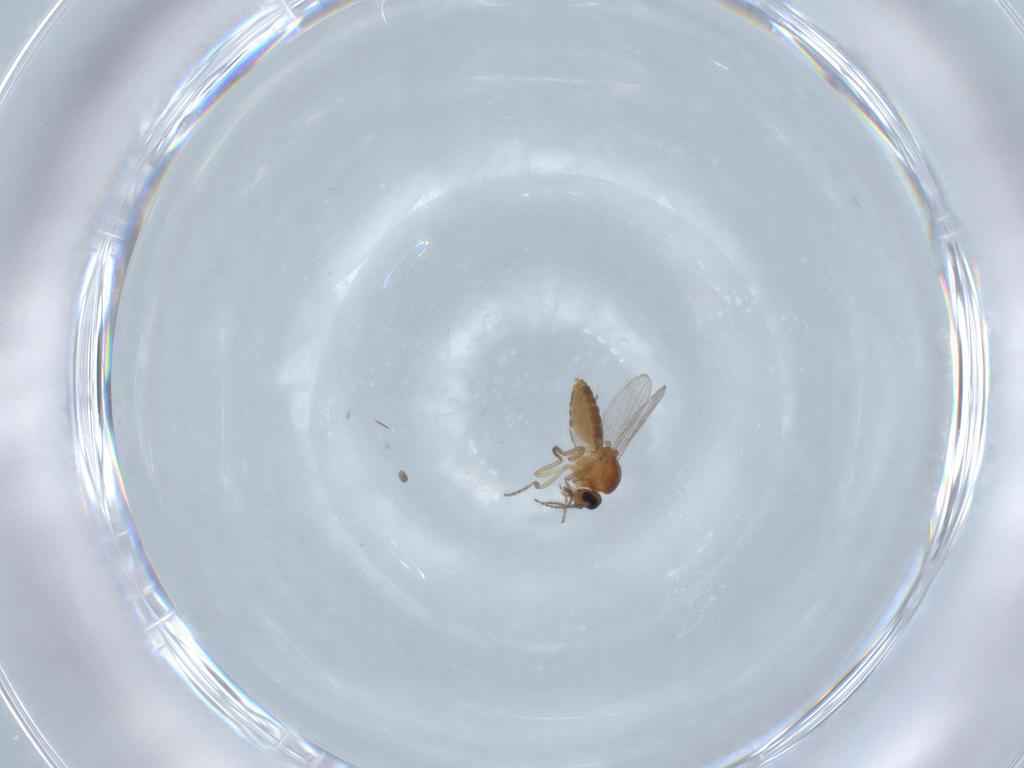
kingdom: Animalia
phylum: Arthropoda
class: Insecta
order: Diptera
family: Ceratopogonidae
